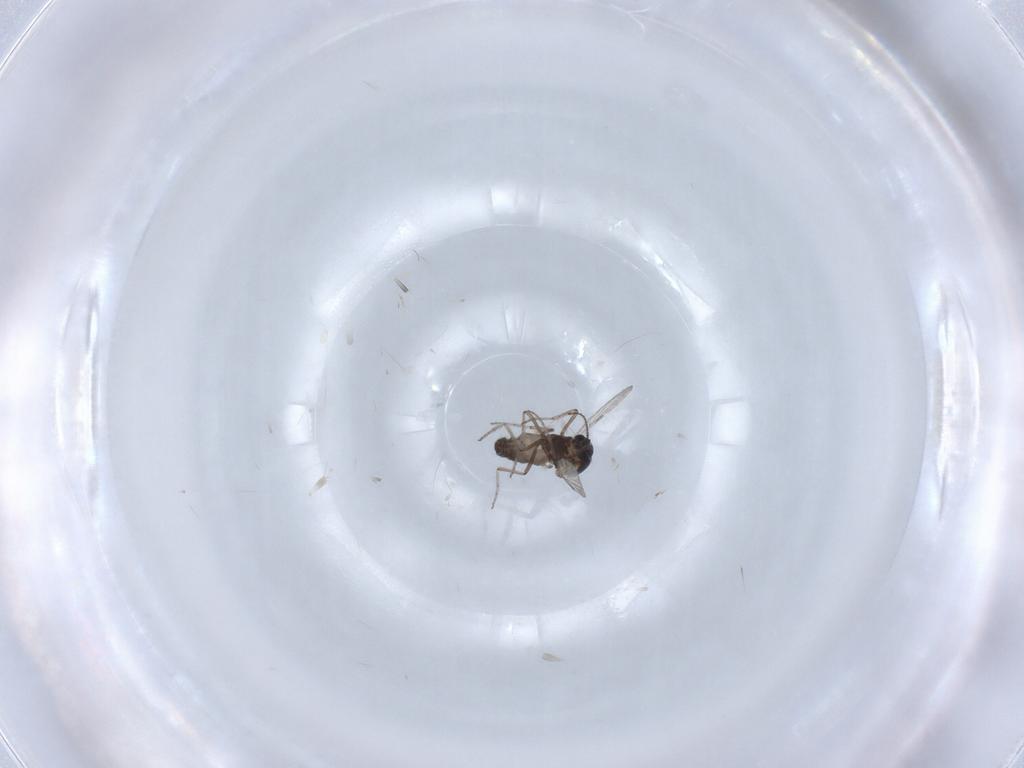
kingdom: Animalia
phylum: Arthropoda
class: Insecta
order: Diptera
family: Ceratopogonidae
